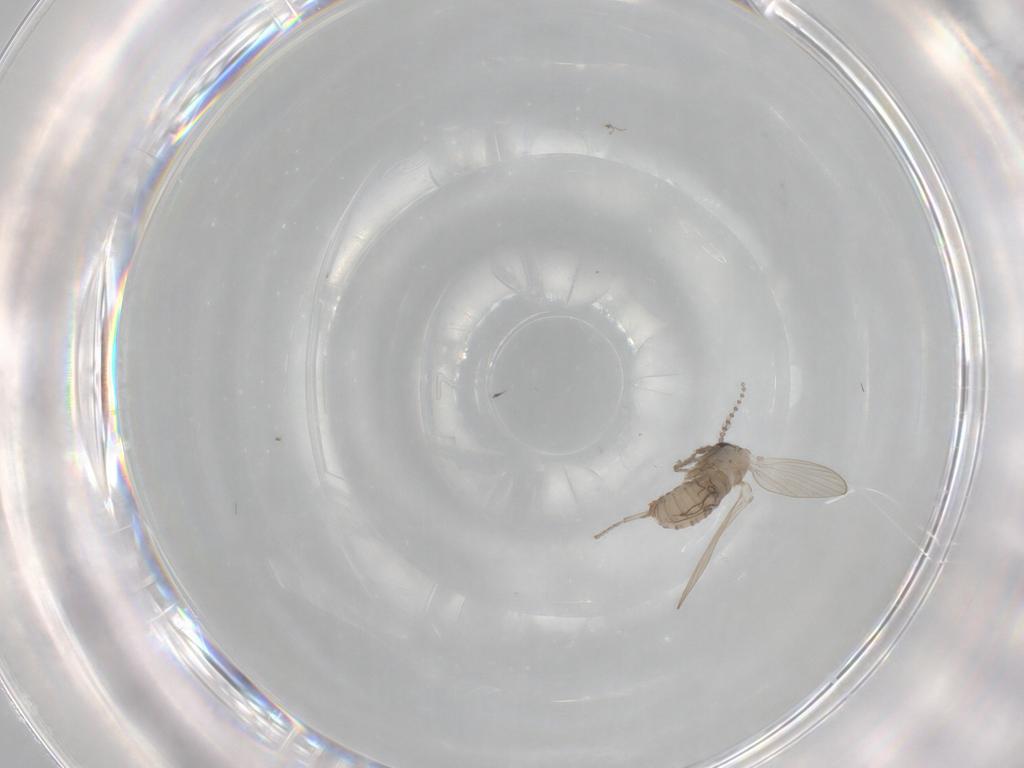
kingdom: Animalia
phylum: Arthropoda
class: Insecta
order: Diptera
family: Psychodidae
